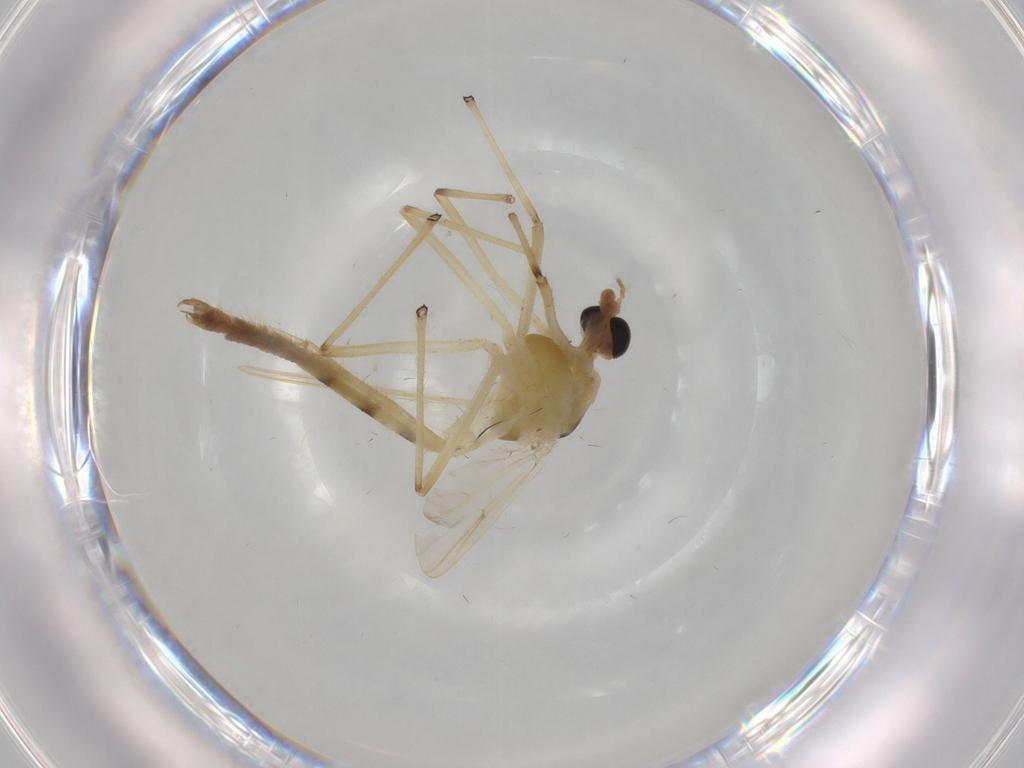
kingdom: Animalia
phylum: Arthropoda
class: Insecta
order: Diptera
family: Chironomidae
